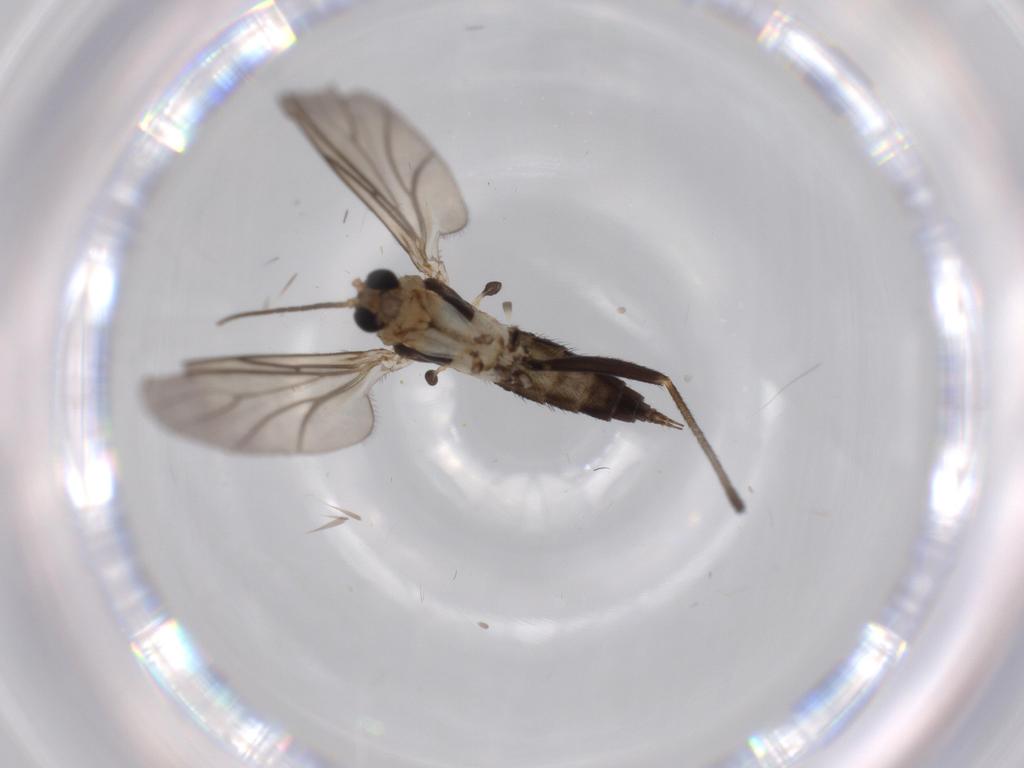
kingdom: Animalia
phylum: Arthropoda
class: Insecta
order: Diptera
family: Sciaridae
